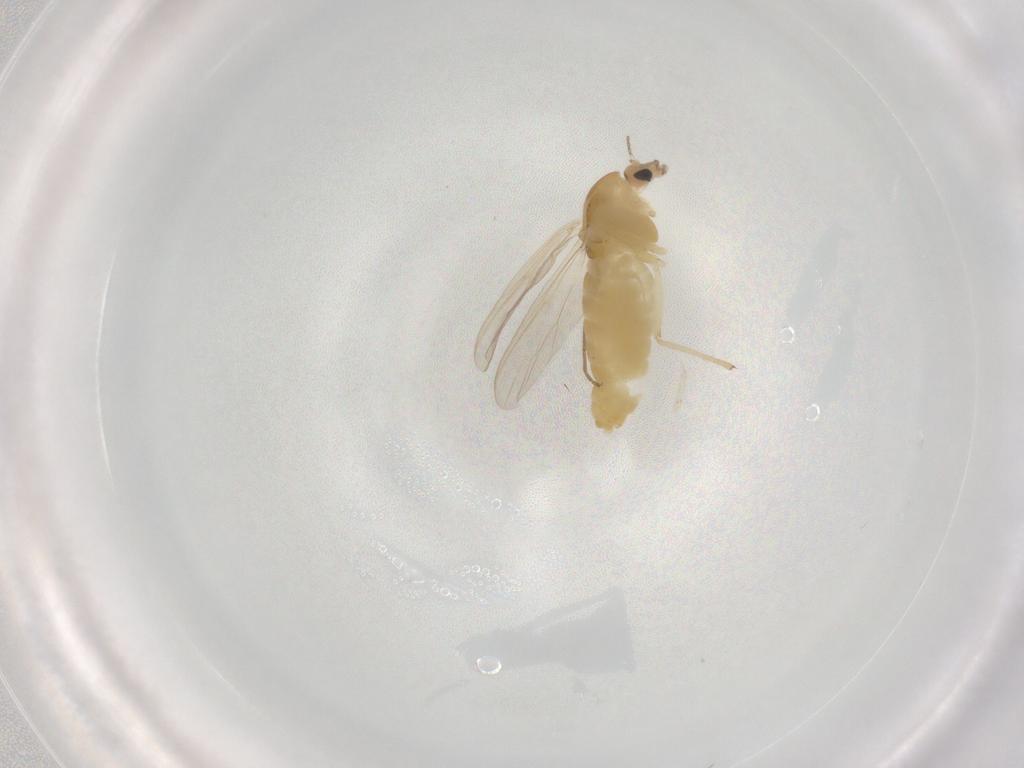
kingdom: Animalia
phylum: Arthropoda
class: Insecta
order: Diptera
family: Chironomidae
